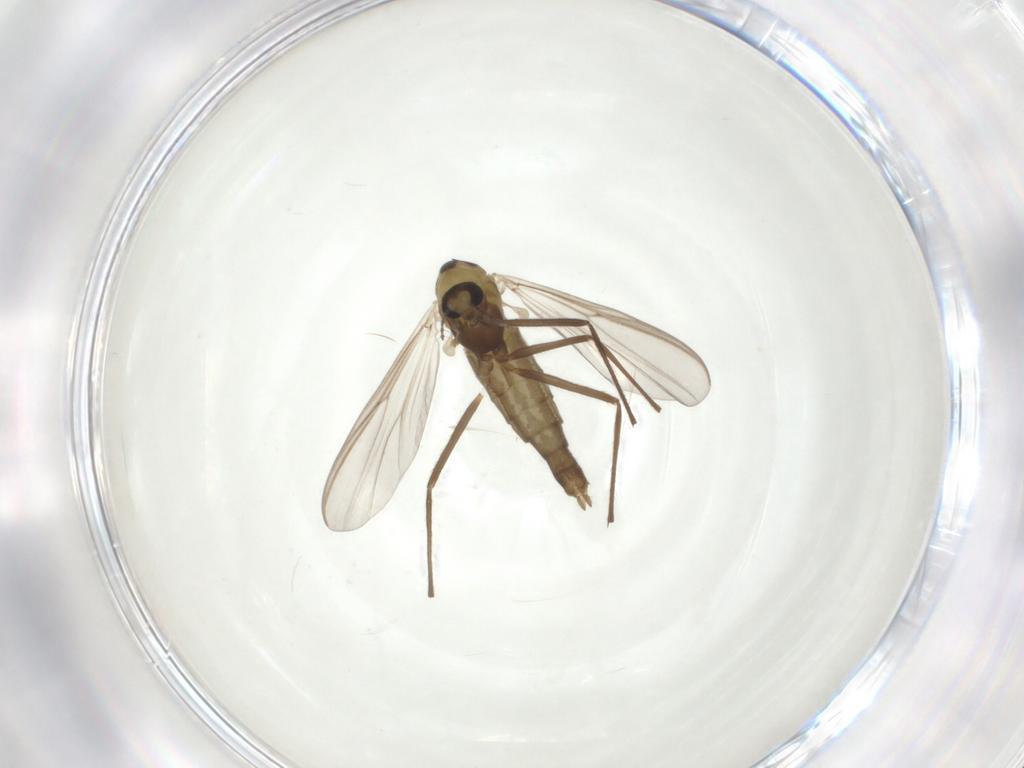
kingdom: Animalia
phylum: Arthropoda
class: Insecta
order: Diptera
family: Chironomidae
